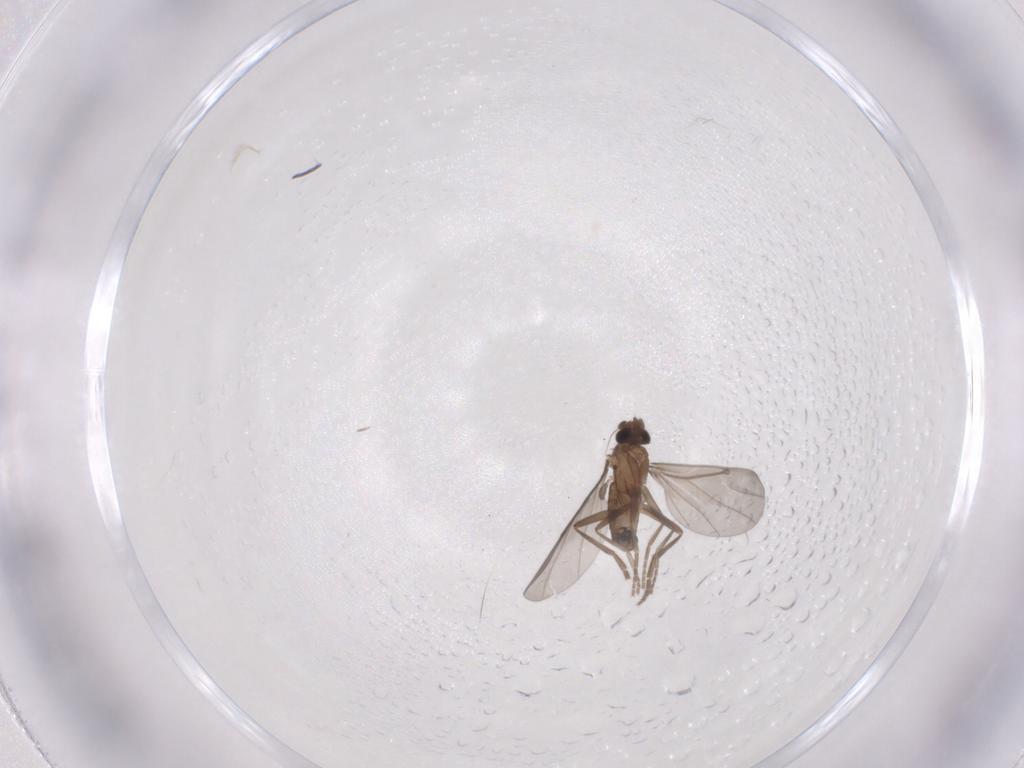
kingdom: Animalia
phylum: Arthropoda
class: Insecta
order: Diptera
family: Phoridae
